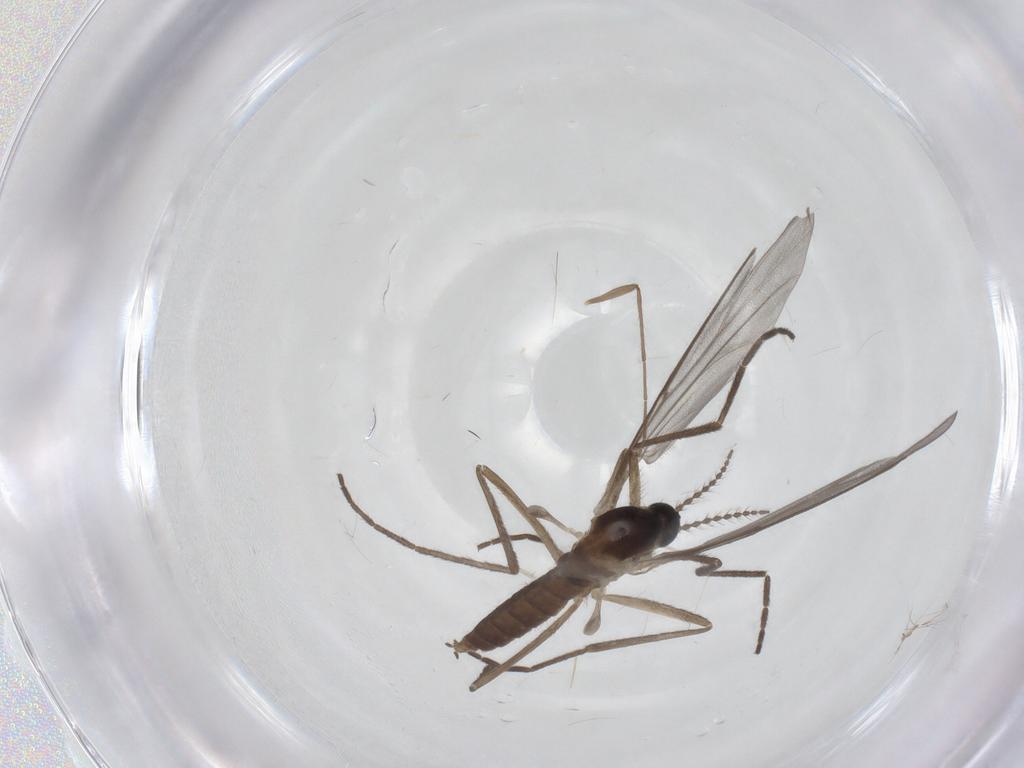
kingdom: Animalia
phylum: Arthropoda
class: Insecta
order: Diptera
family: Cecidomyiidae
